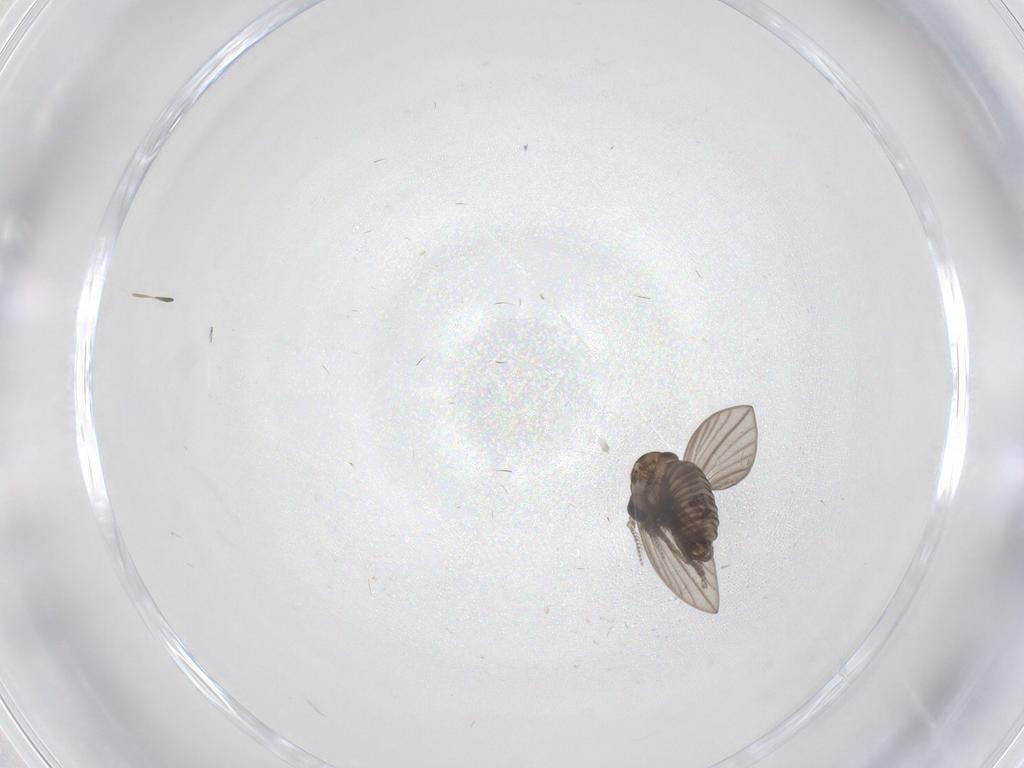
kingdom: Animalia
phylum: Arthropoda
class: Insecta
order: Diptera
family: Psychodidae
